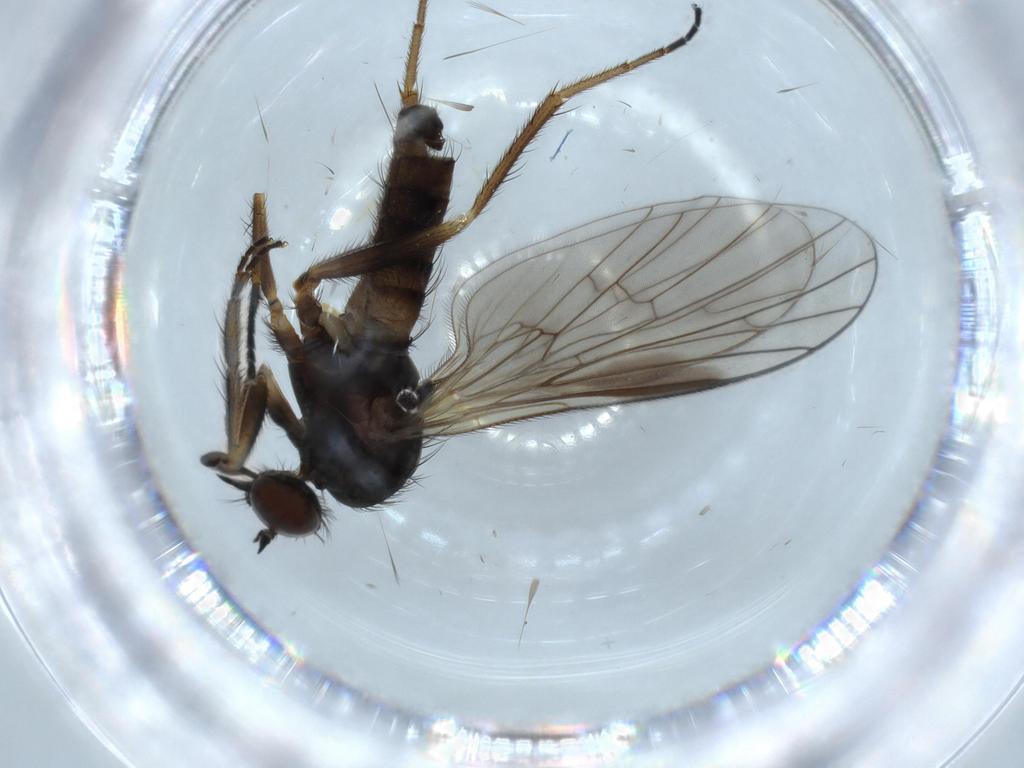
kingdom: Animalia
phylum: Arthropoda
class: Insecta
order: Diptera
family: Empididae
